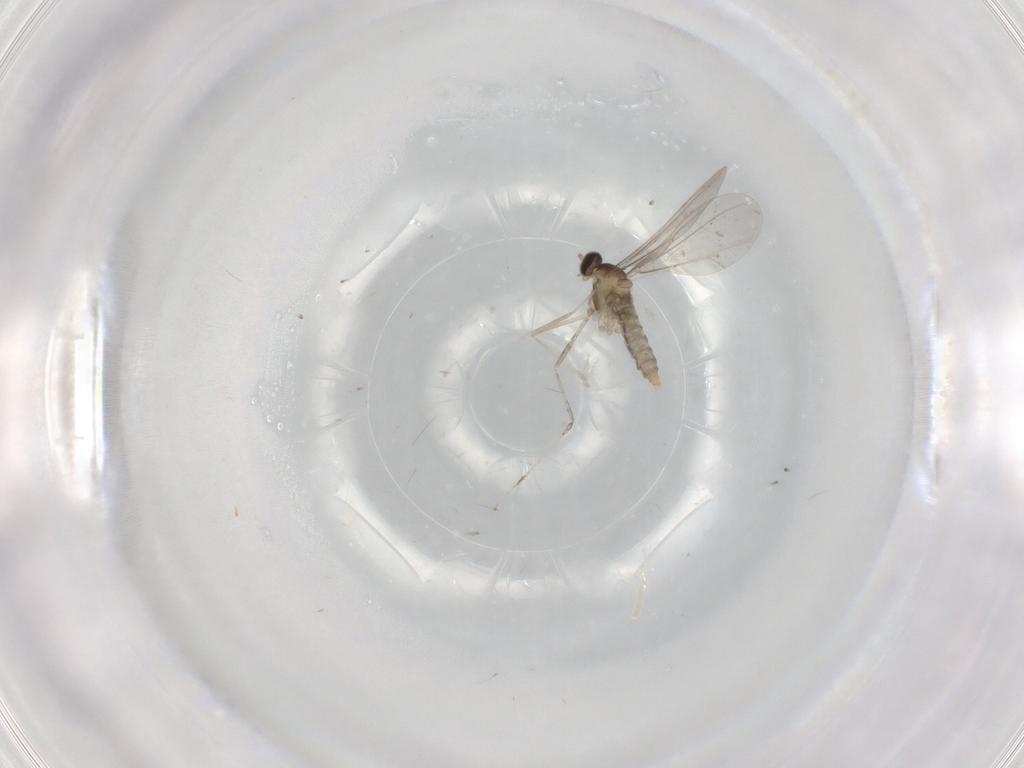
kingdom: Animalia
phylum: Arthropoda
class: Insecta
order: Diptera
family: Cecidomyiidae
